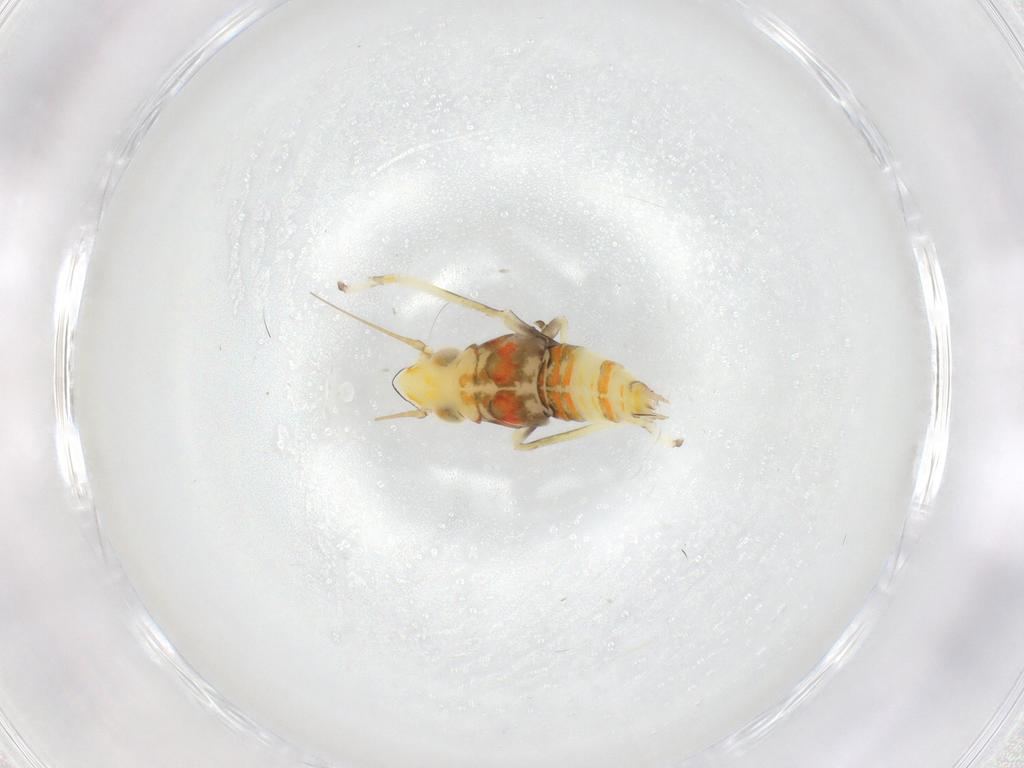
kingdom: Animalia
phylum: Arthropoda
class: Insecta
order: Hemiptera
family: Cicadellidae
